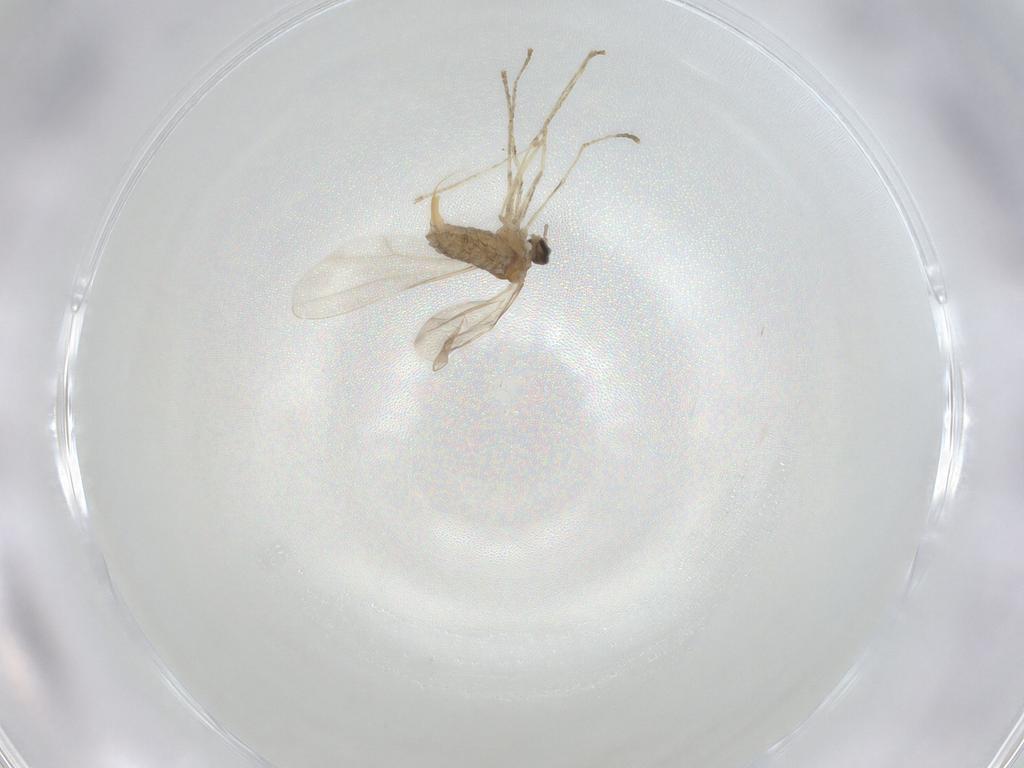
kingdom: Animalia
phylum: Arthropoda
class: Insecta
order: Diptera
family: Cecidomyiidae
